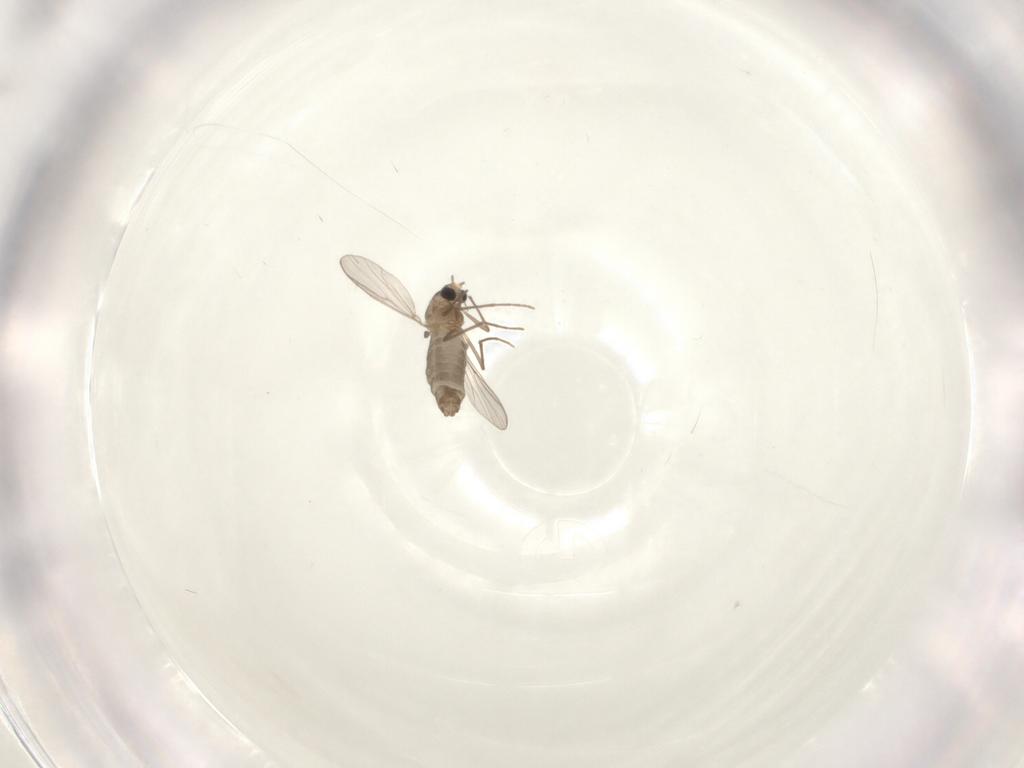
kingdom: Animalia
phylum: Arthropoda
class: Insecta
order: Diptera
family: Chironomidae
